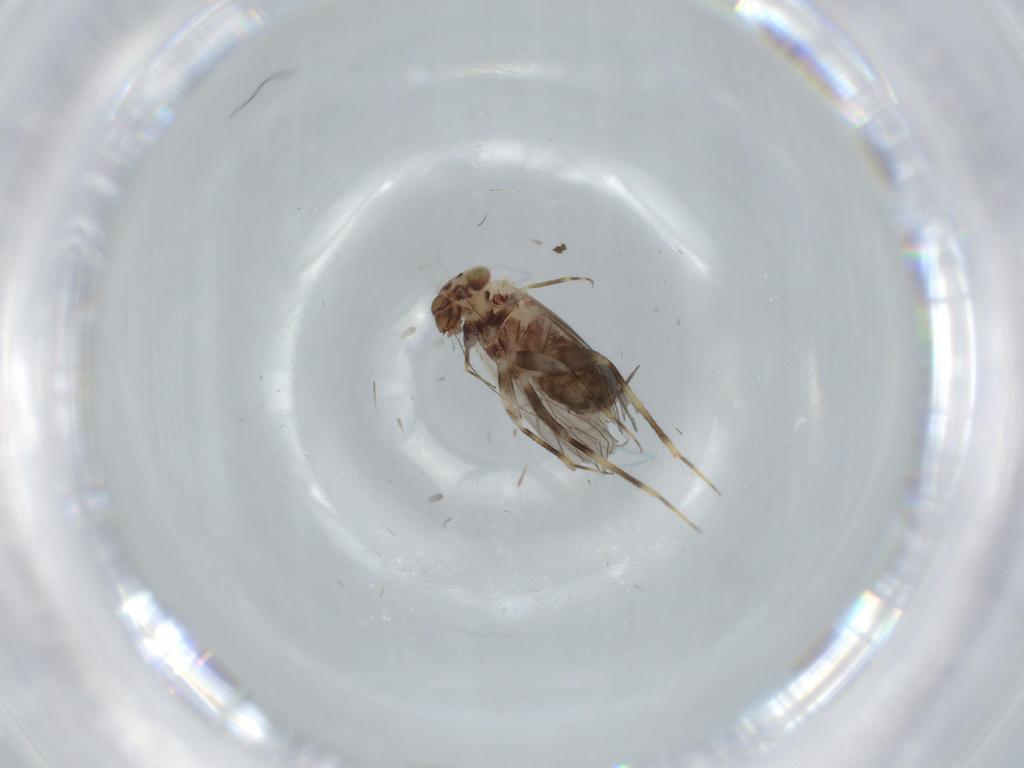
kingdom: Animalia
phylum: Arthropoda
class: Insecta
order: Psocodea
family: Lepidopsocidae
